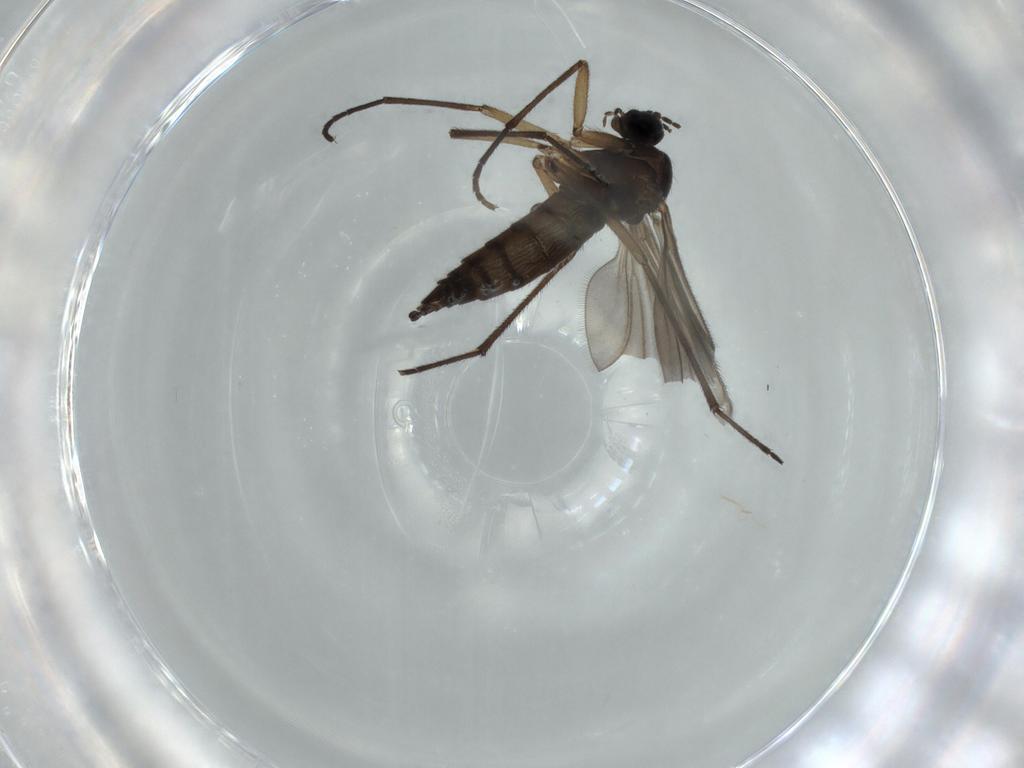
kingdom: Animalia
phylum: Arthropoda
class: Insecta
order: Diptera
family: Sciaridae
